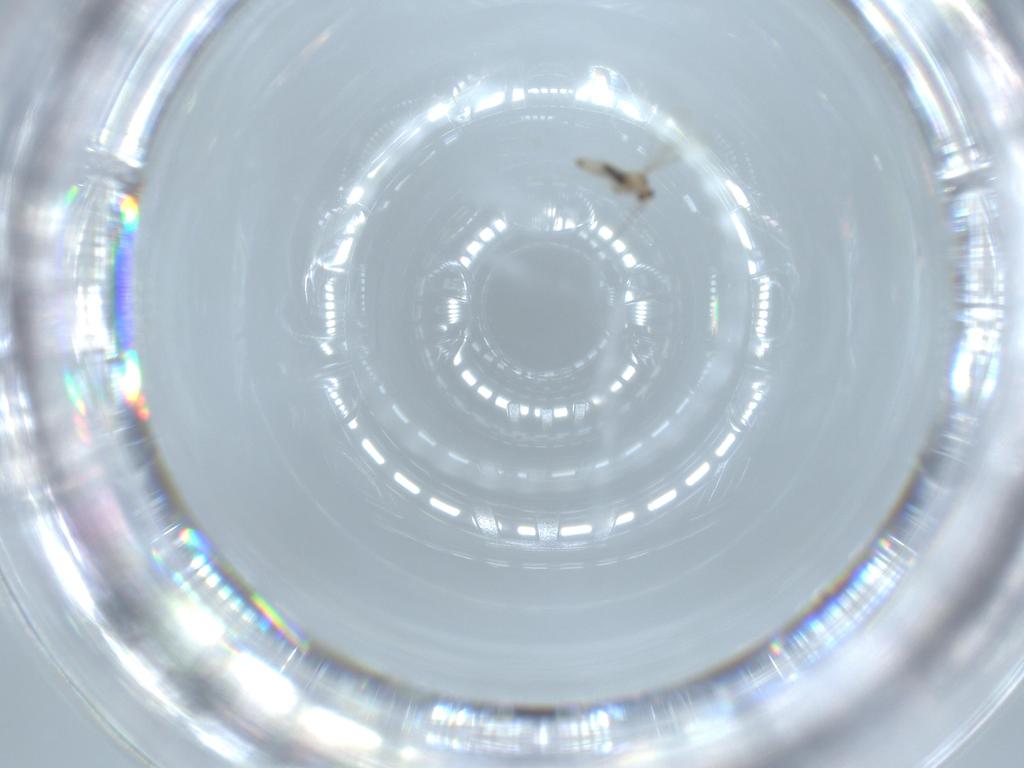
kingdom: Animalia
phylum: Arthropoda
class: Insecta
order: Diptera
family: Cecidomyiidae
